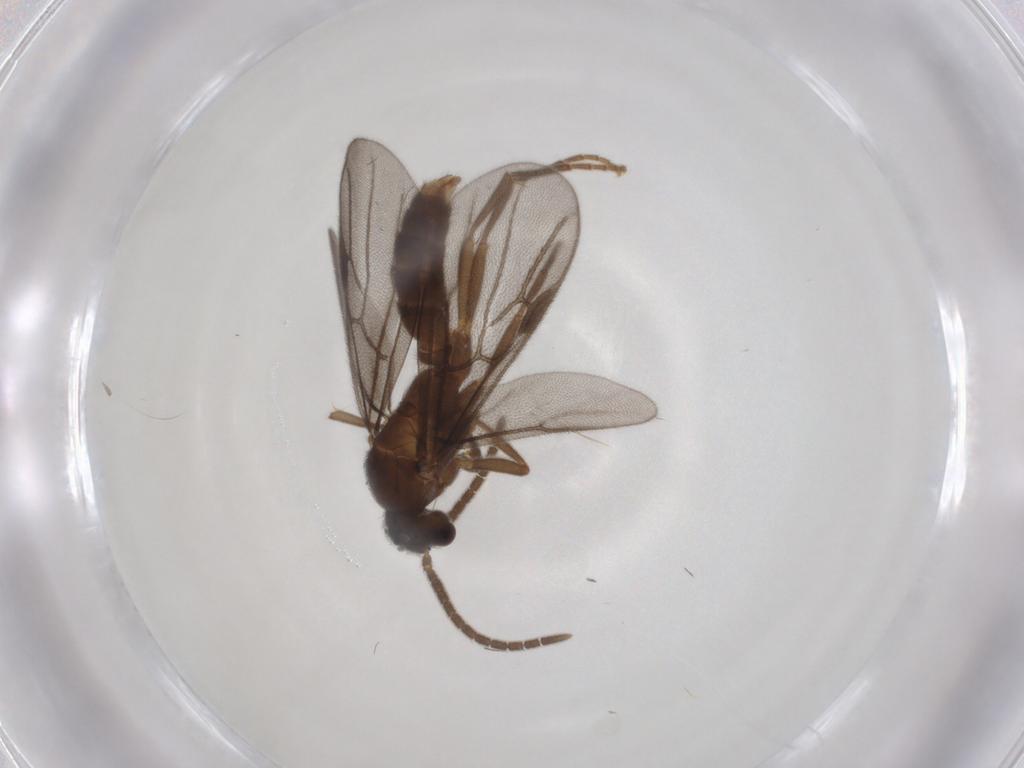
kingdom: Animalia
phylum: Arthropoda
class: Insecta
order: Hymenoptera
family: Formicidae
